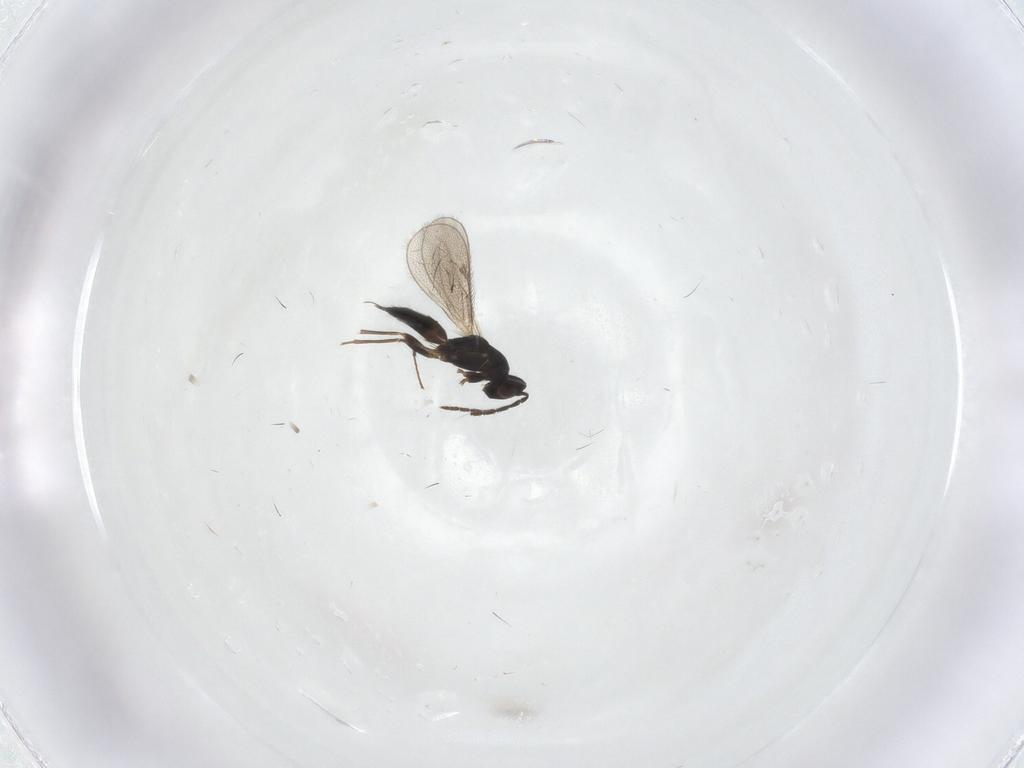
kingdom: Animalia
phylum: Arthropoda
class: Insecta
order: Hymenoptera
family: Eulophidae
